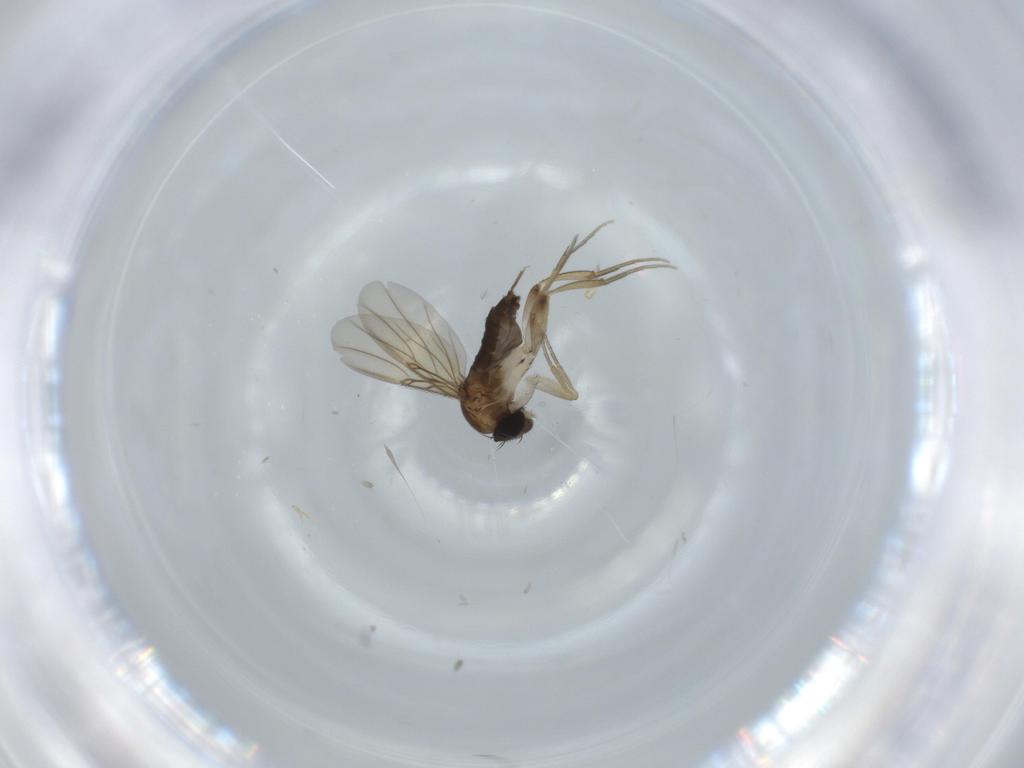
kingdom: Animalia
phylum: Arthropoda
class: Insecta
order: Diptera
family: Phoridae
